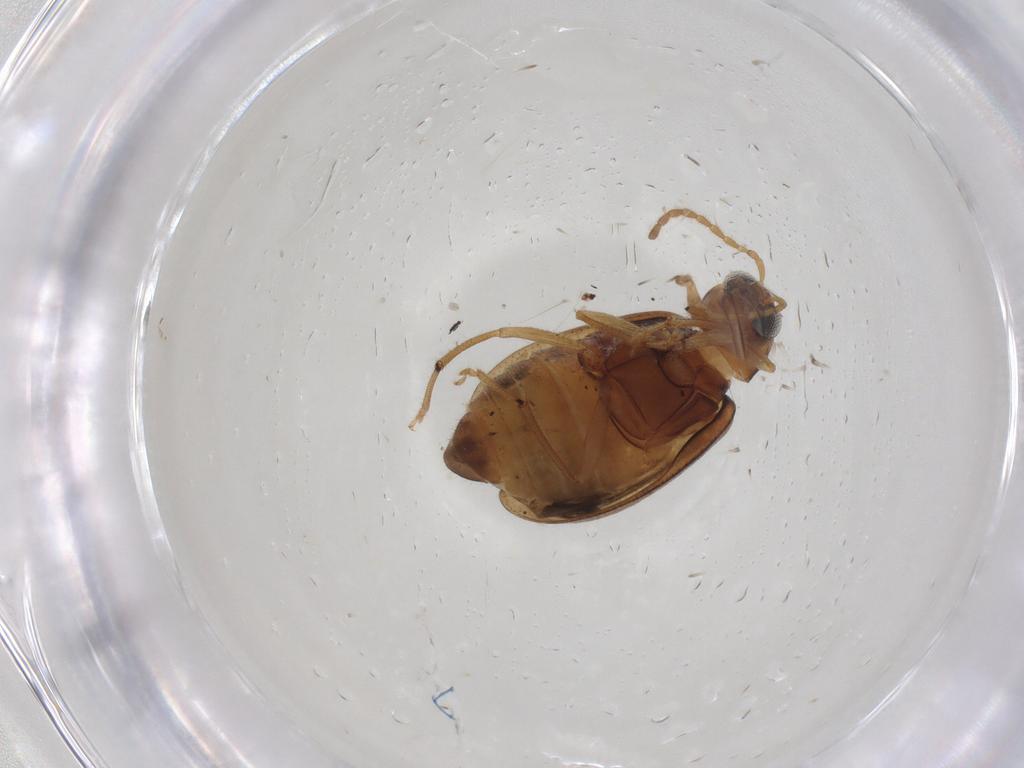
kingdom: Animalia
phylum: Arthropoda
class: Insecta
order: Coleoptera
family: Chrysomelidae
